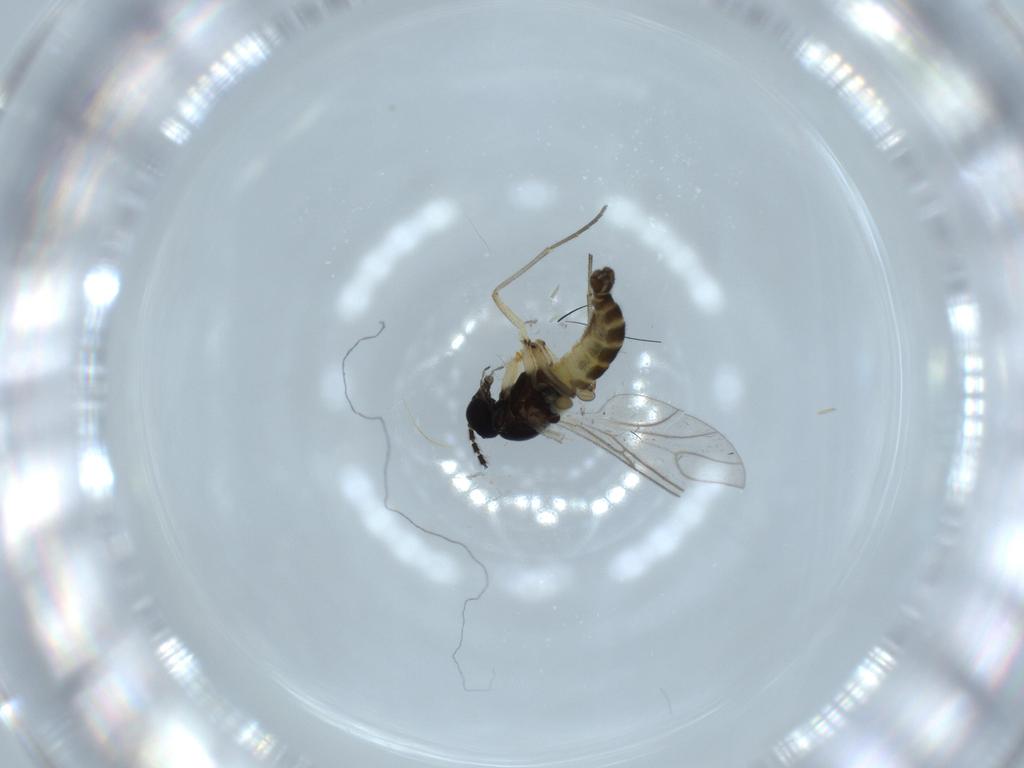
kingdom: Animalia
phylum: Arthropoda
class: Insecta
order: Diptera
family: Sciaridae
